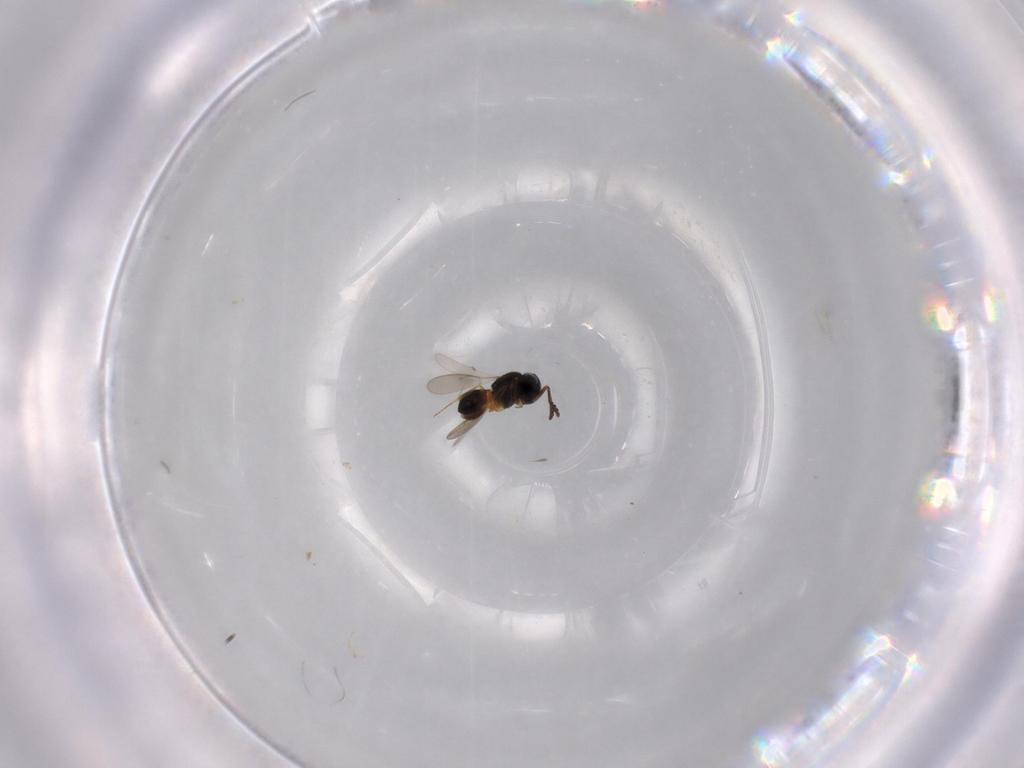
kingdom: Animalia
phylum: Arthropoda
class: Insecta
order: Hymenoptera
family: Scelionidae
